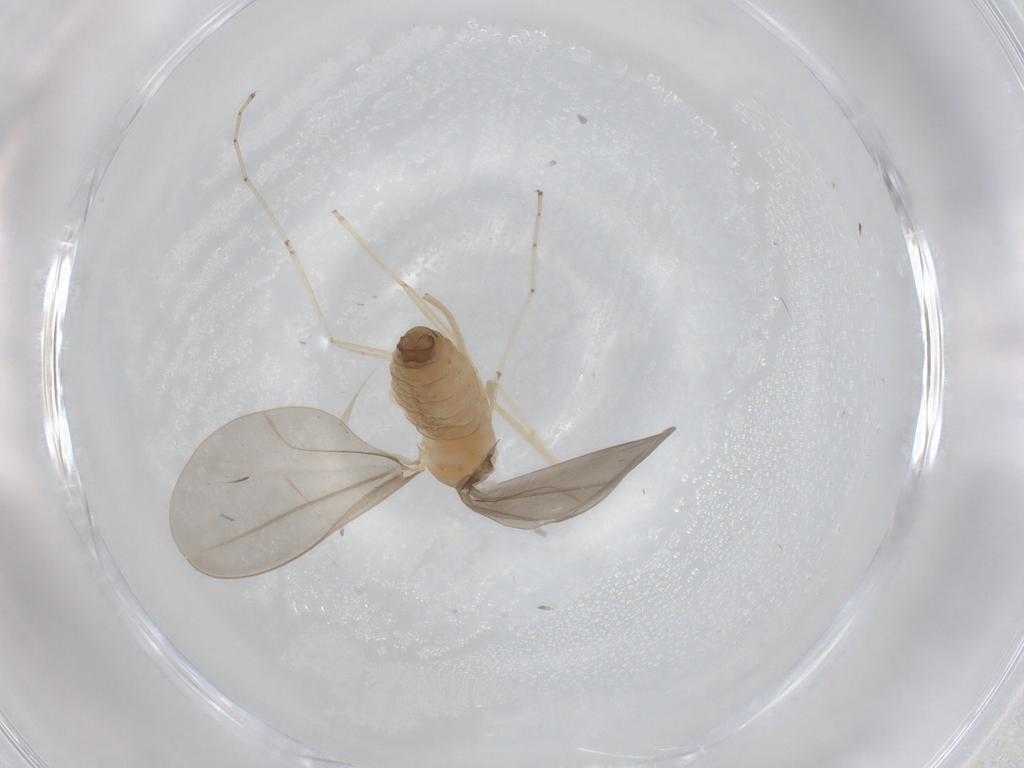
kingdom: Animalia
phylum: Arthropoda
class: Insecta
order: Diptera
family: Cecidomyiidae
